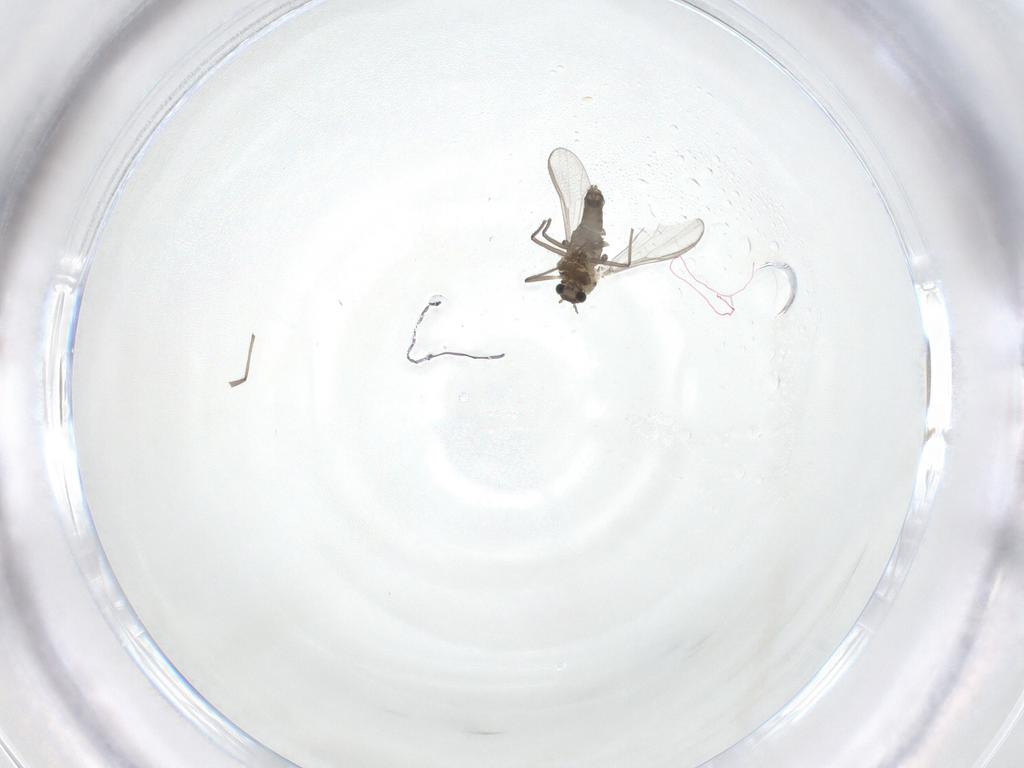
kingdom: Animalia
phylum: Arthropoda
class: Insecta
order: Diptera
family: Chironomidae
